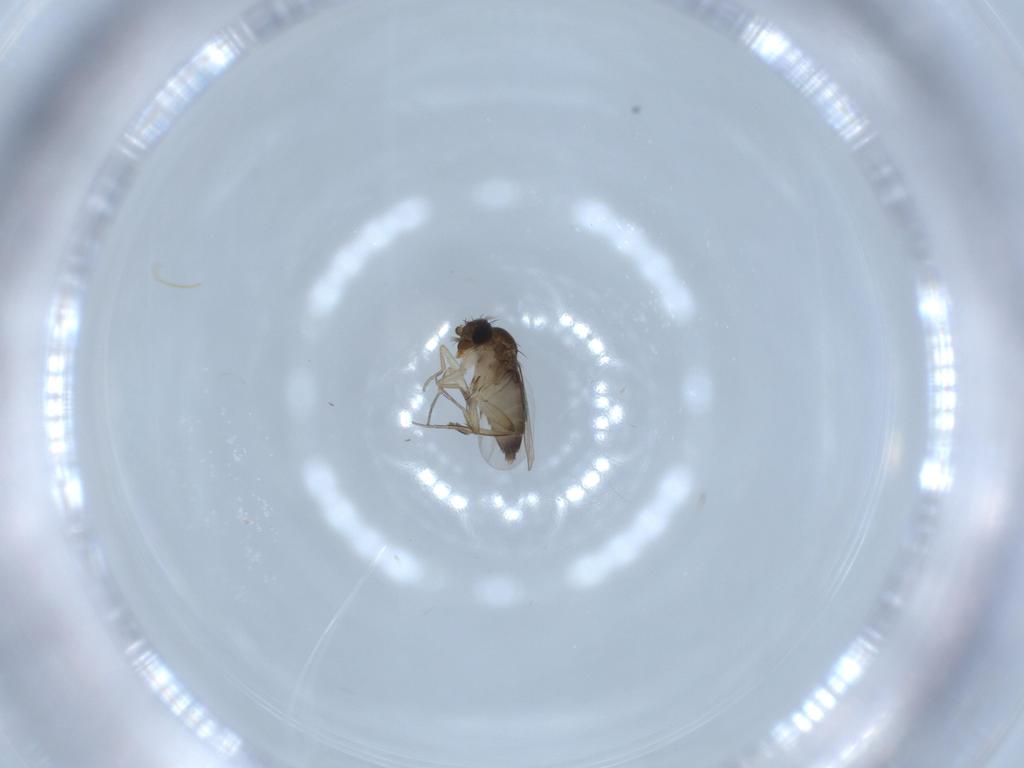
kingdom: Animalia
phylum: Arthropoda
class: Insecta
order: Diptera
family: Phoridae
